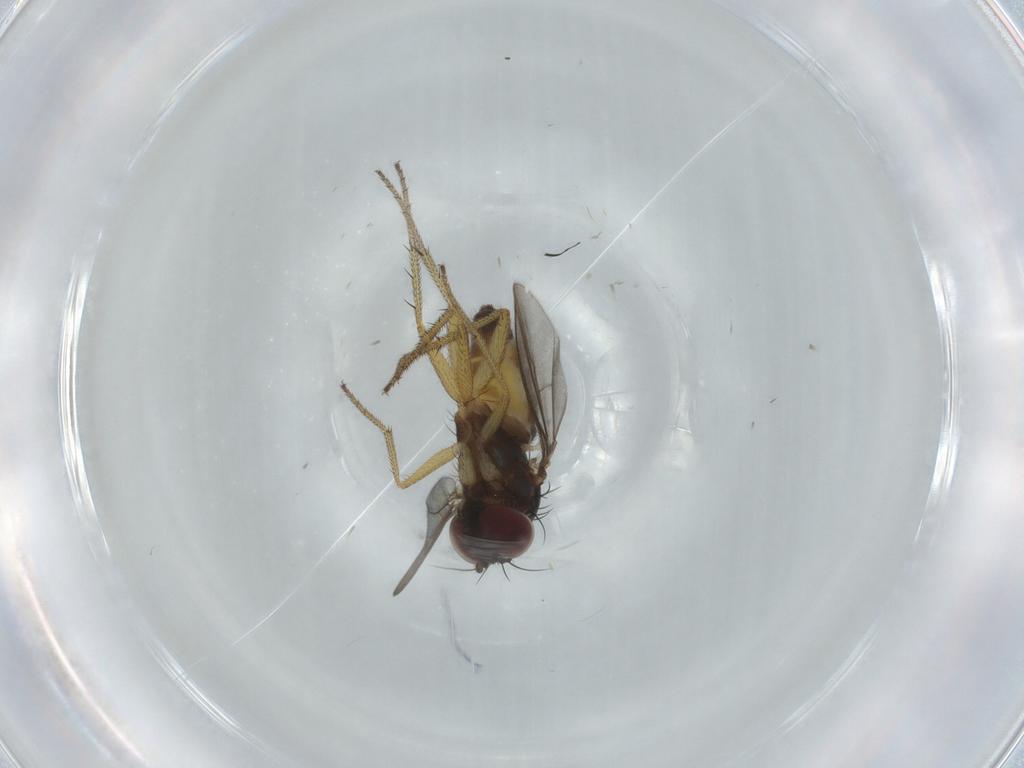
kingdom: Animalia
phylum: Arthropoda
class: Insecta
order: Diptera
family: Dolichopodidae
